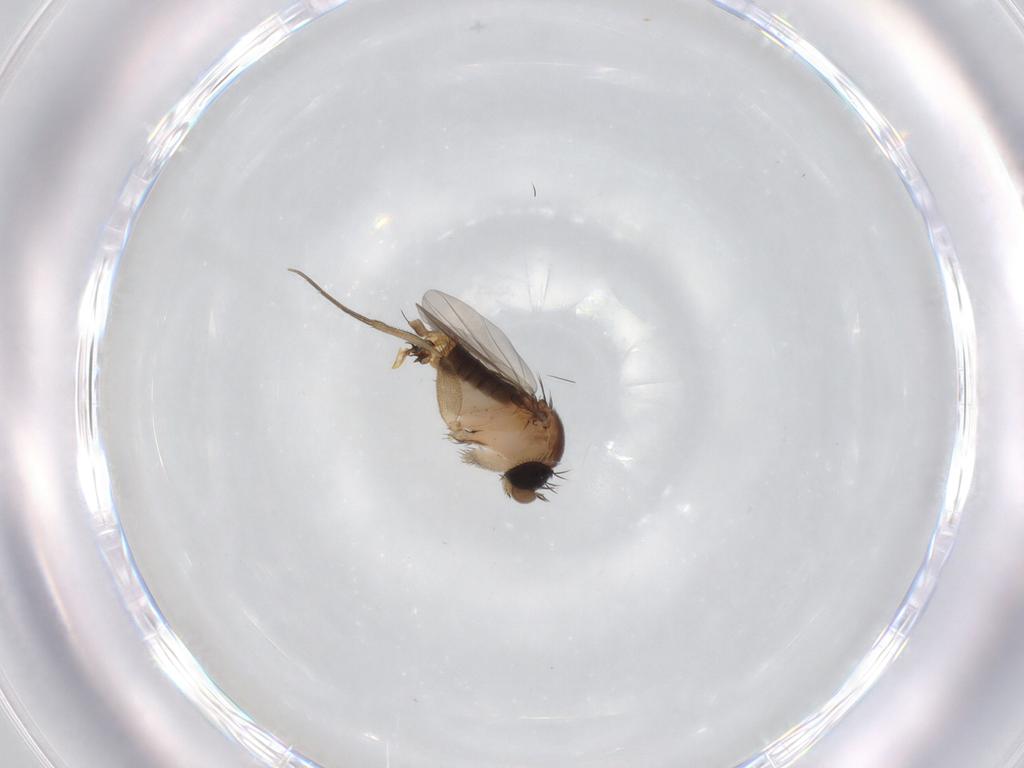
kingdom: Animalia
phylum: Arthropoda
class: Insecta
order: Diptera
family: Phoridae
